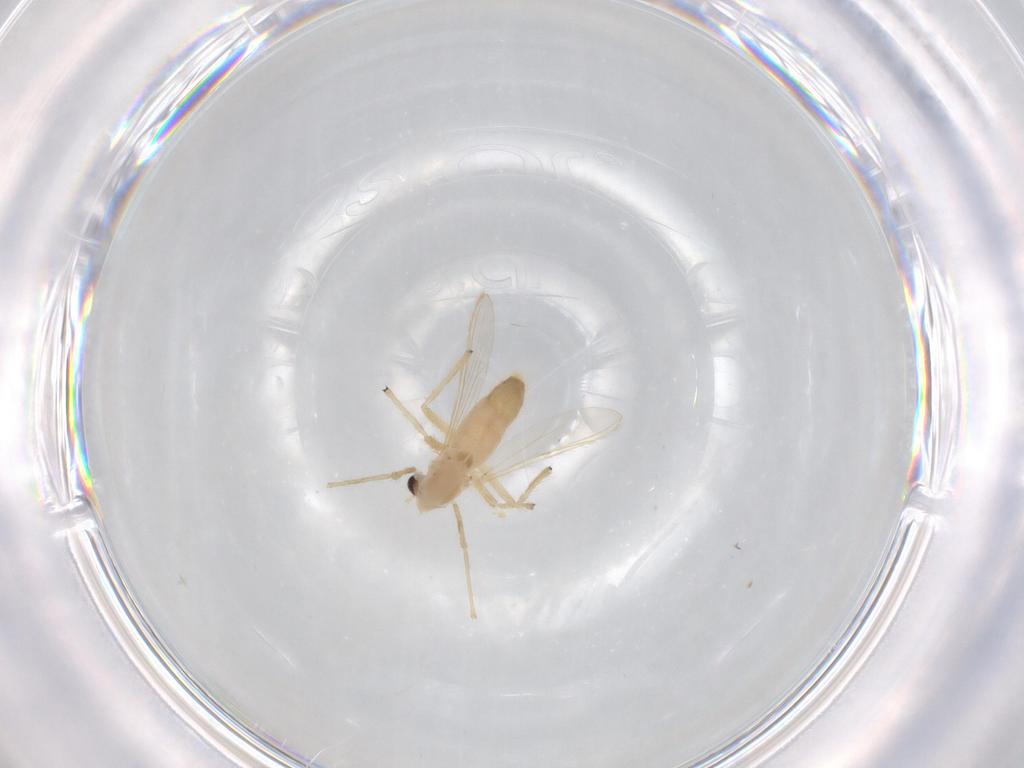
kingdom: Animalia
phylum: Arthropoda
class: Insecta
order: Diptera
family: Chironomidae
